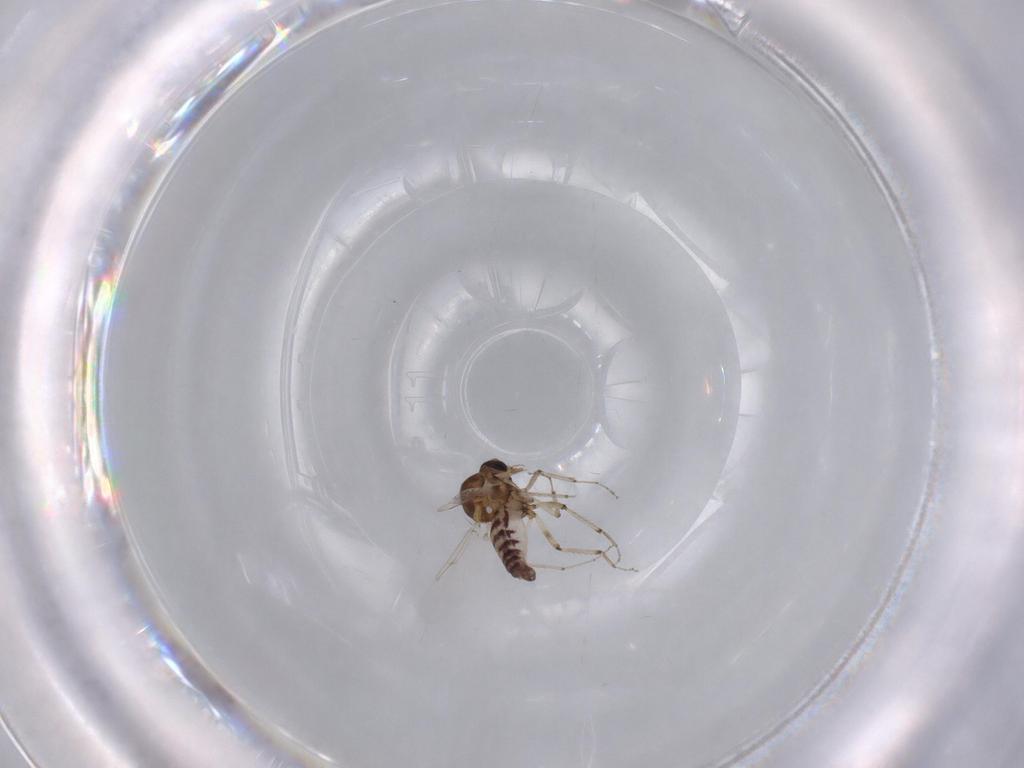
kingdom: Animalia
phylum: Arthropoda
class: Insecta
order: Diptera
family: Ceratopogonidae
